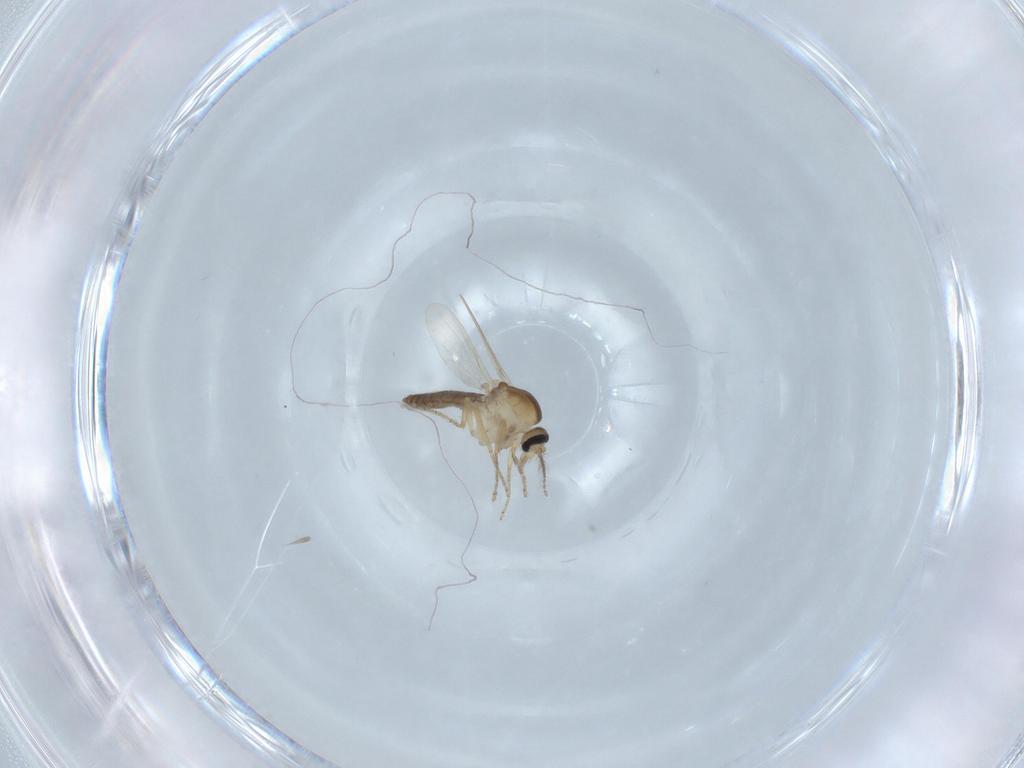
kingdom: Animalia
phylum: Arthropoda
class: Insecta
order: Diptera
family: Ceratopogonidae
